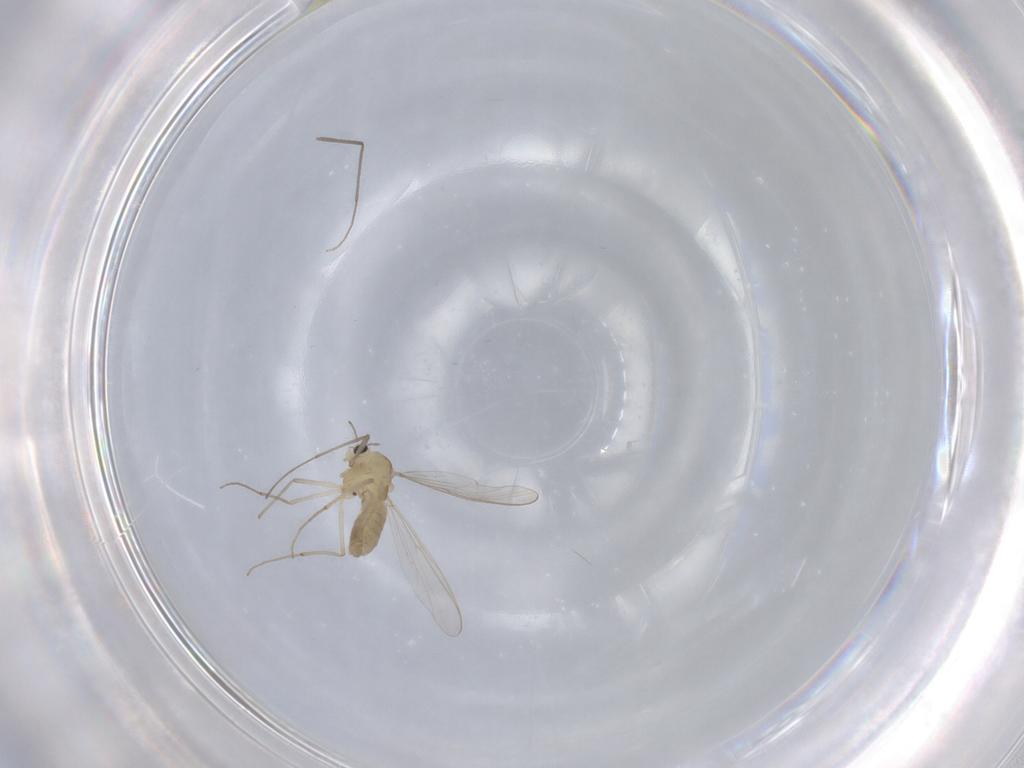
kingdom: Animalia
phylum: Arthropoda
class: Insecta
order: Diptera
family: Chironomidae
